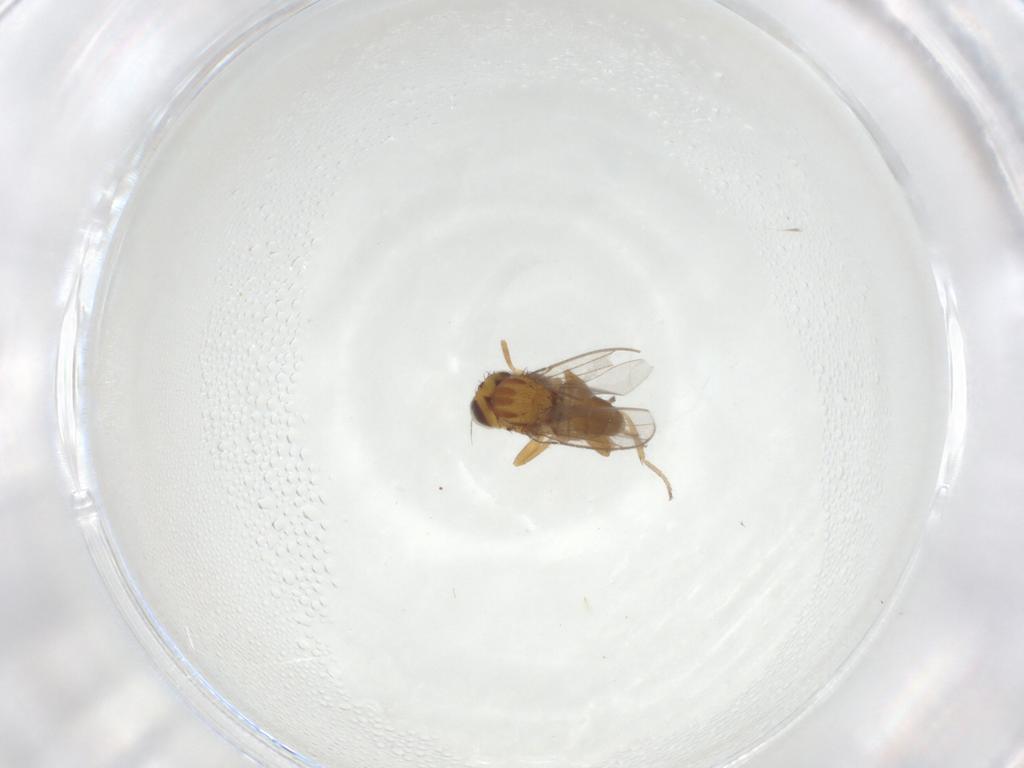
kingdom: Animalia
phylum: Arthropoda
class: Insecta
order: Diptera
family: Chloropidae
